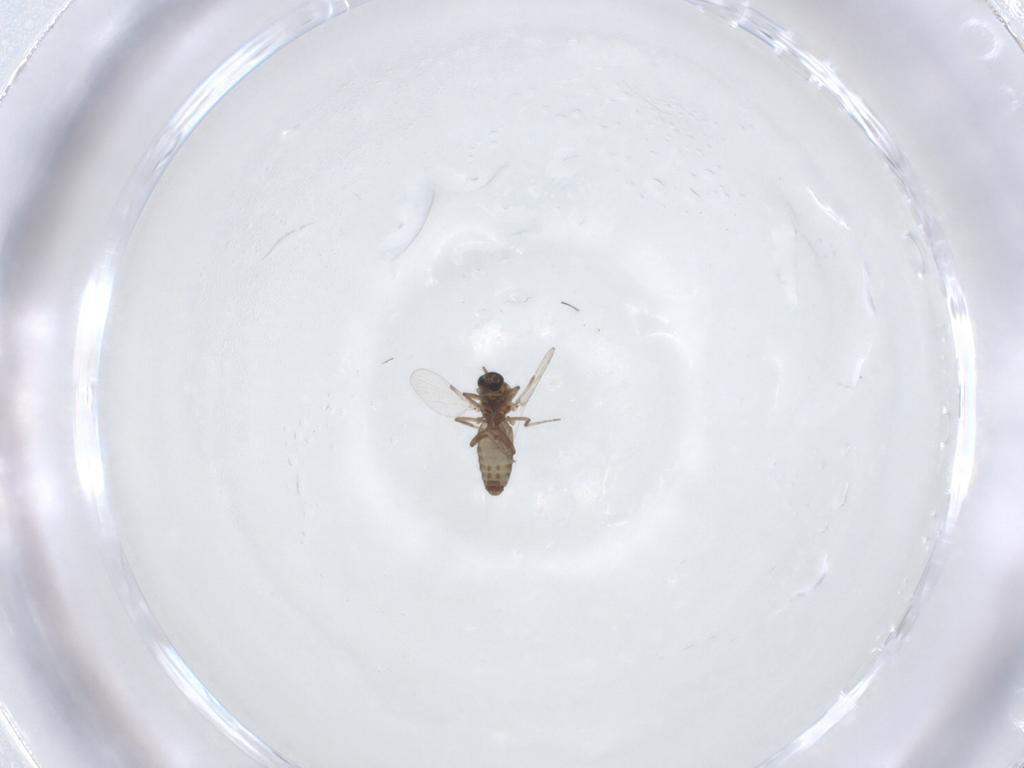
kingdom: Animalia
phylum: Arthropoda
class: Insecta
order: Diptera
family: Ceratopogonidae
